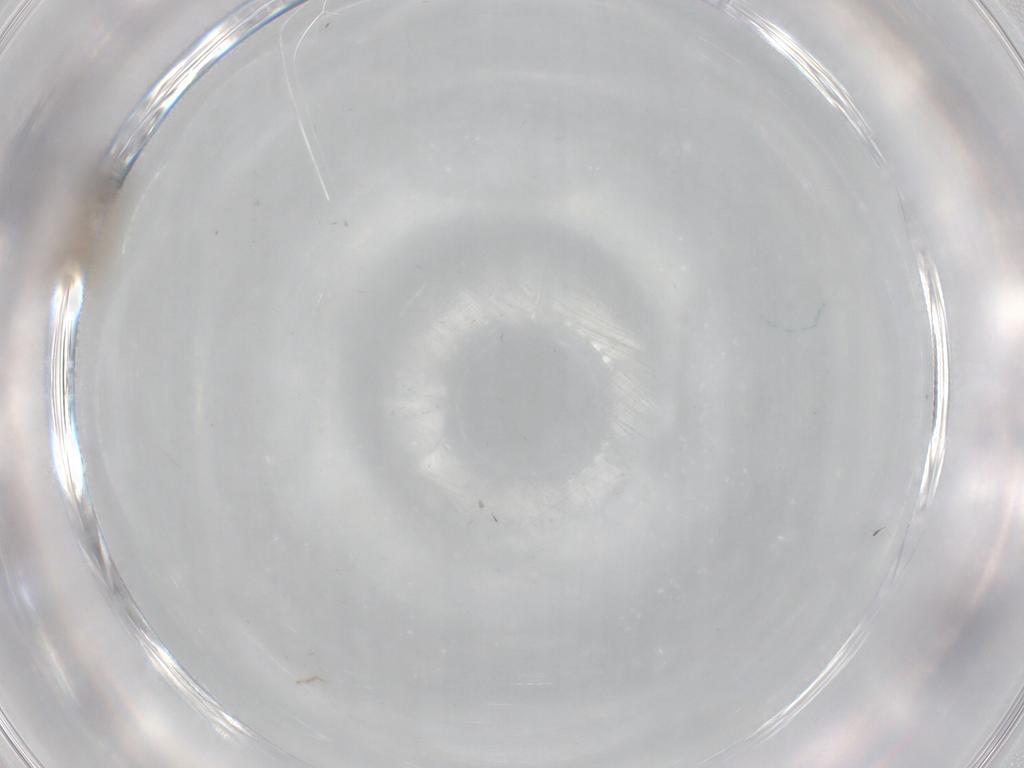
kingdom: Animalia
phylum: Arthropoda
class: Insecta
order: Diptera
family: Cecidomyiidae
